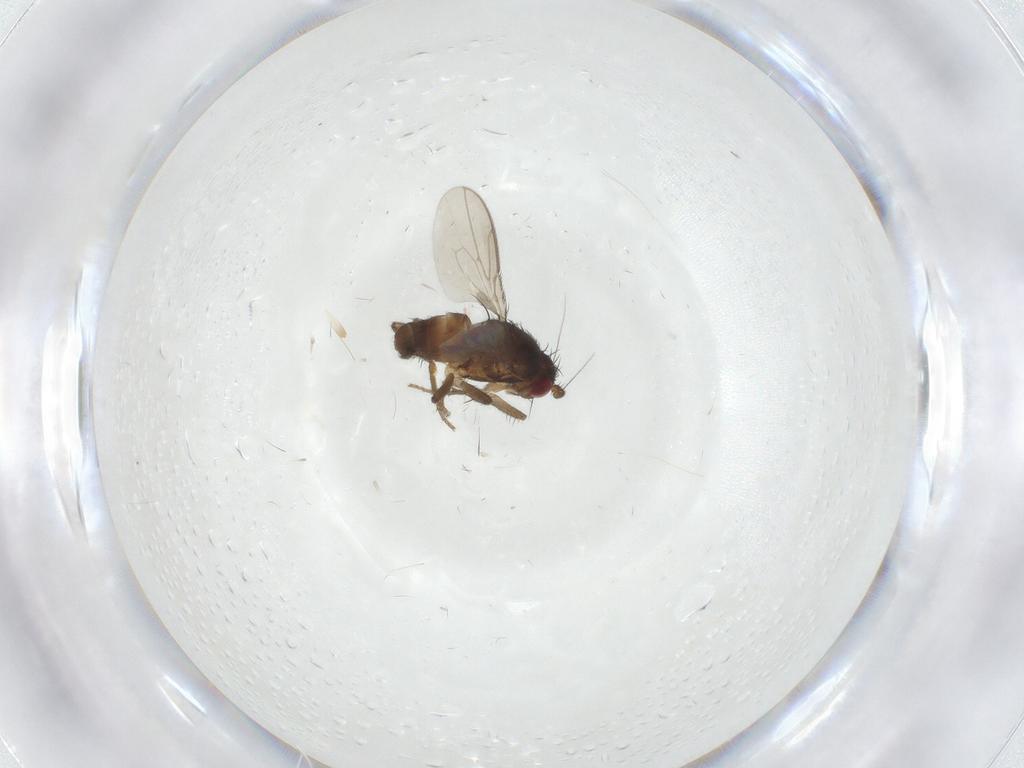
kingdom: Animalia
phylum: Arthropoda
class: Insecta
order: Diptera
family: Sphaeroceridae
